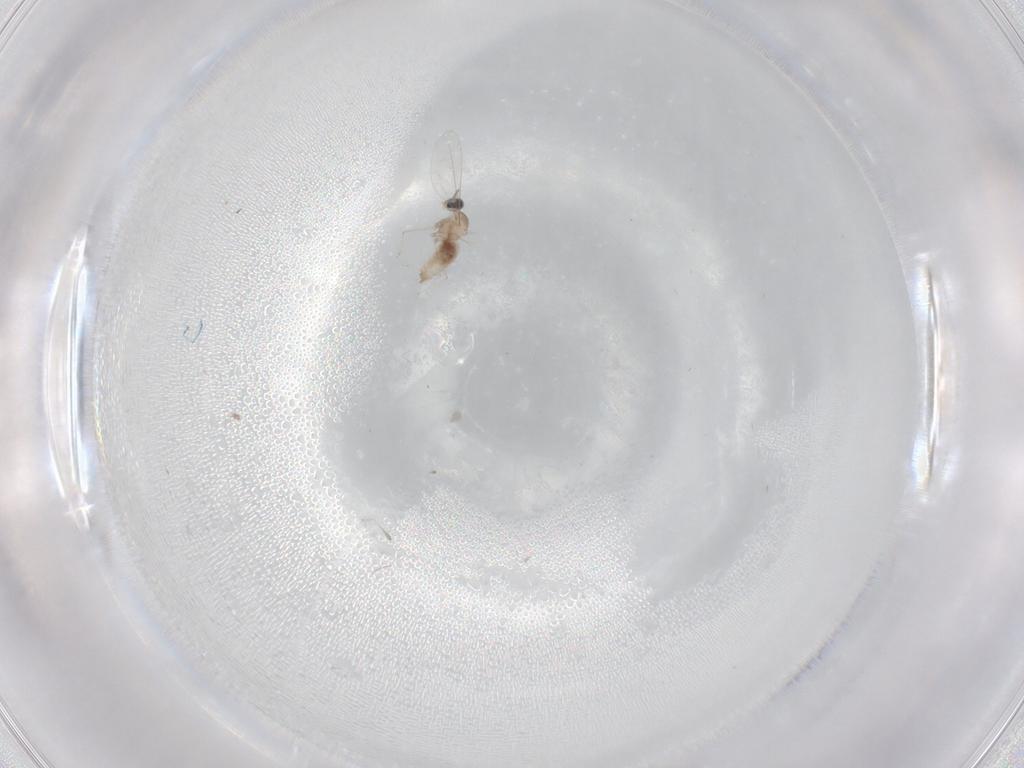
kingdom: Animalia
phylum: Arthropoda
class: Insecta
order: Diptera
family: Cecidomyiidae
